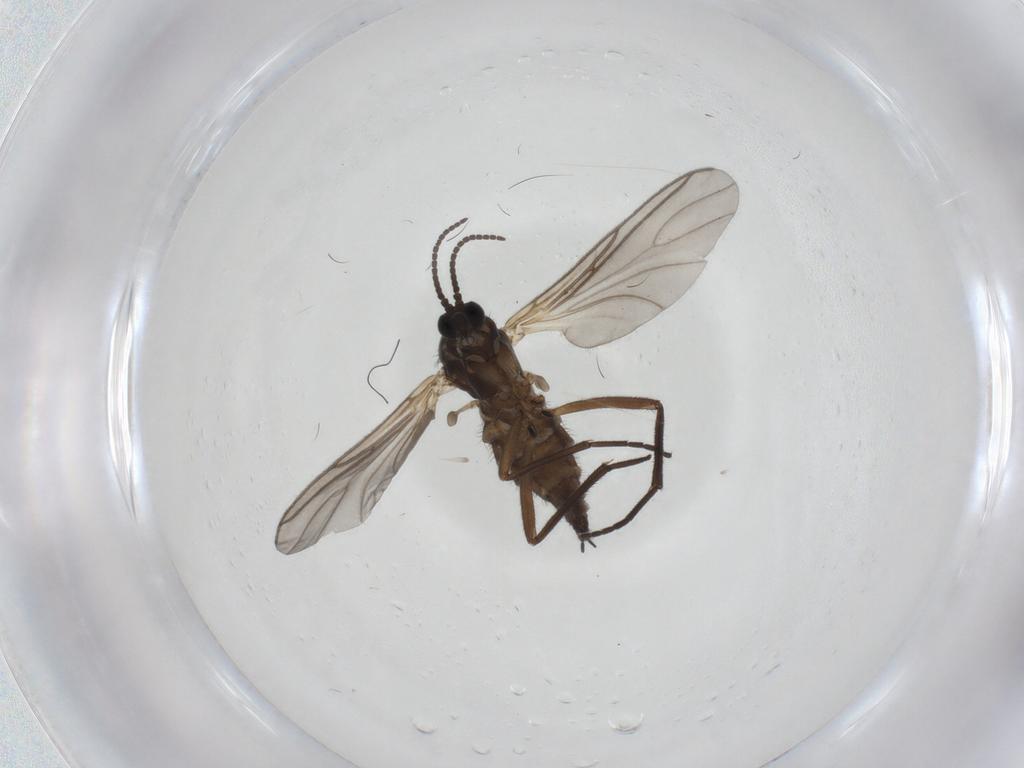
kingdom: Animalia
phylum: Arthropoda
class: Insecta
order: Diptera
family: Sciaridae
